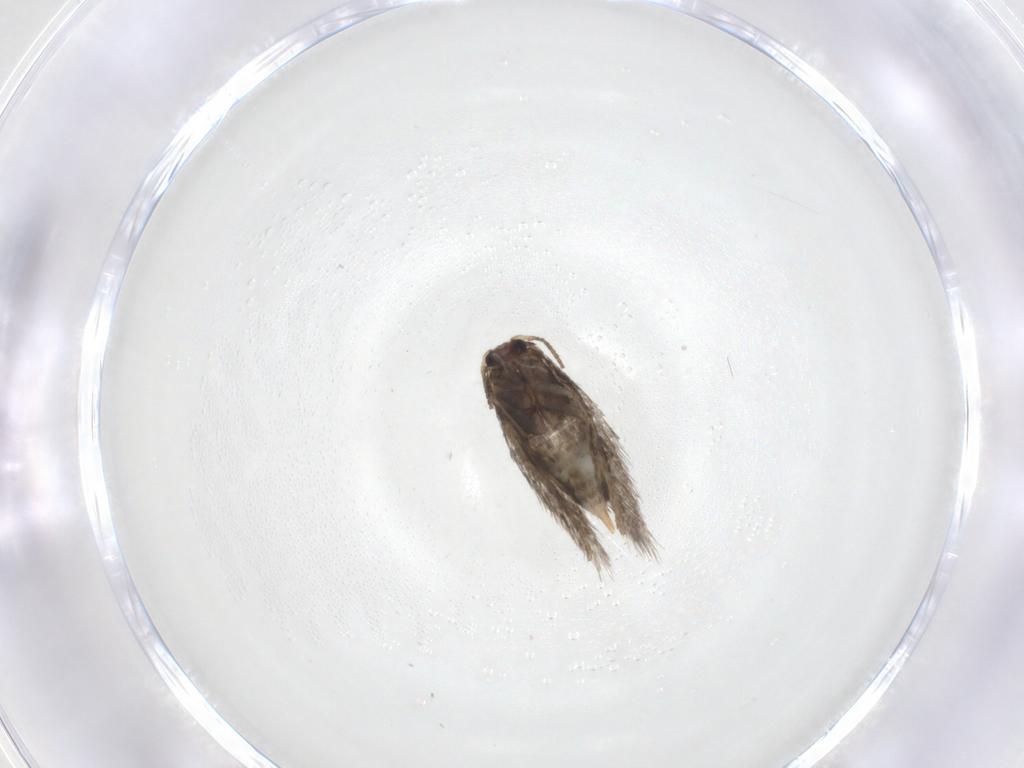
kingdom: Animalia
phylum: Arthropoda
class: Insecta
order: Lepidoptera
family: Nepticulidae
